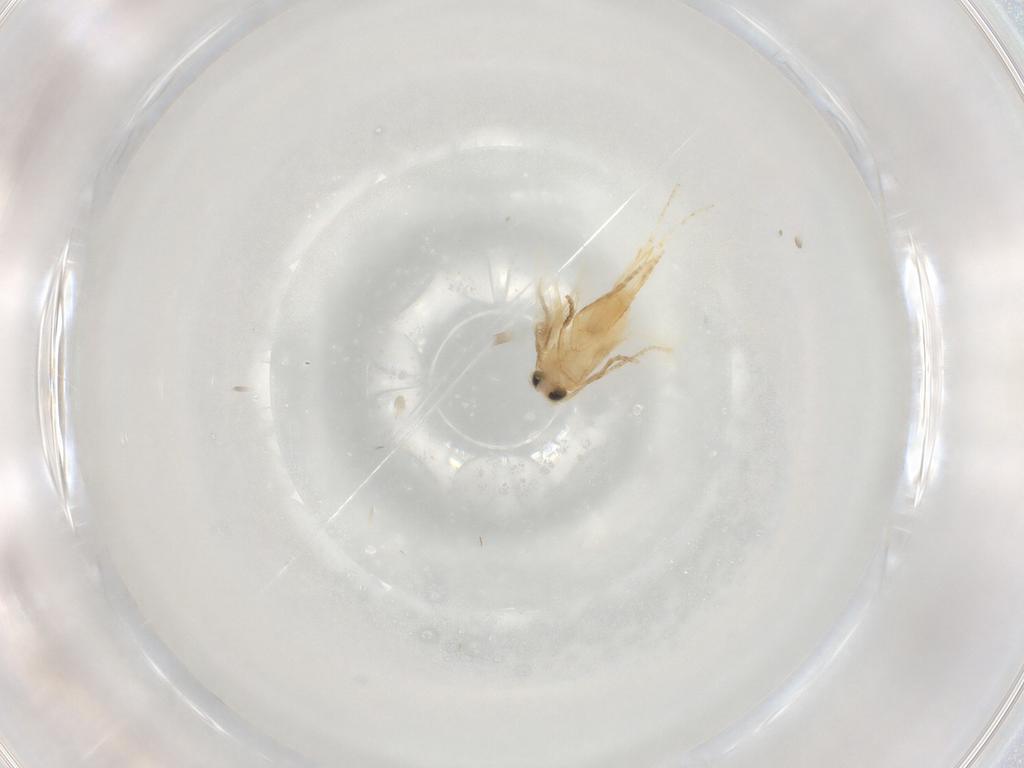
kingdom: Animalia
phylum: Arthropoda
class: Insecta
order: Lepidoptera
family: Nepticulidae
